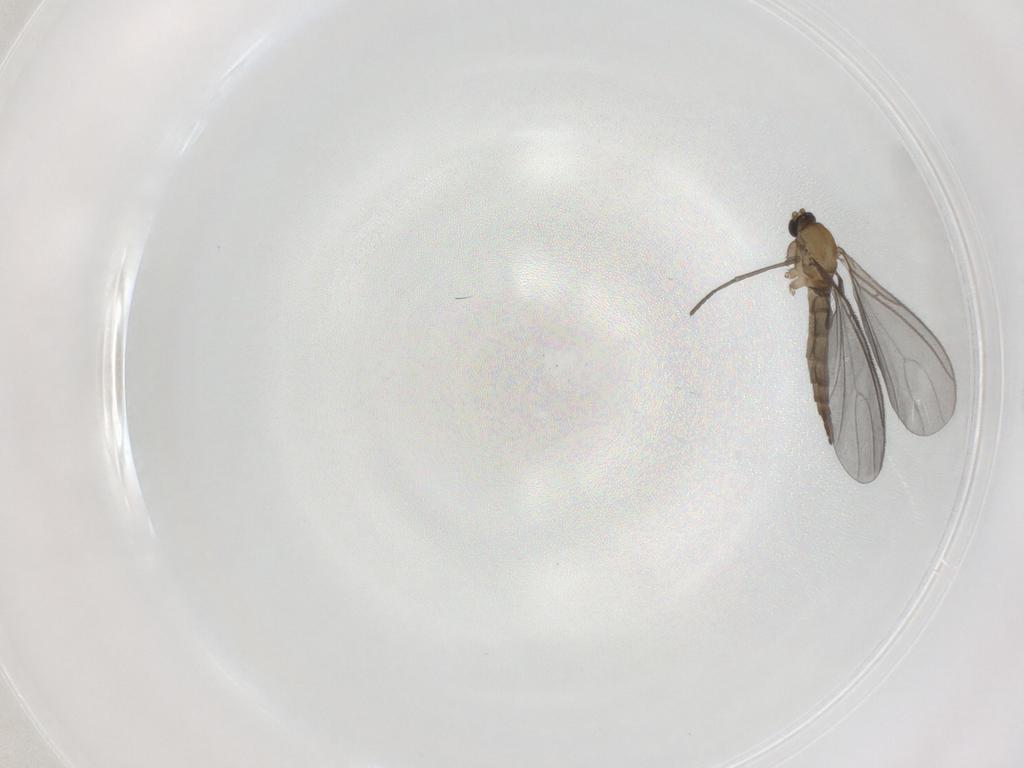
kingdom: Animalia
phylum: Arthropoda
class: Insecta
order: Diptera
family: Sciaridae
